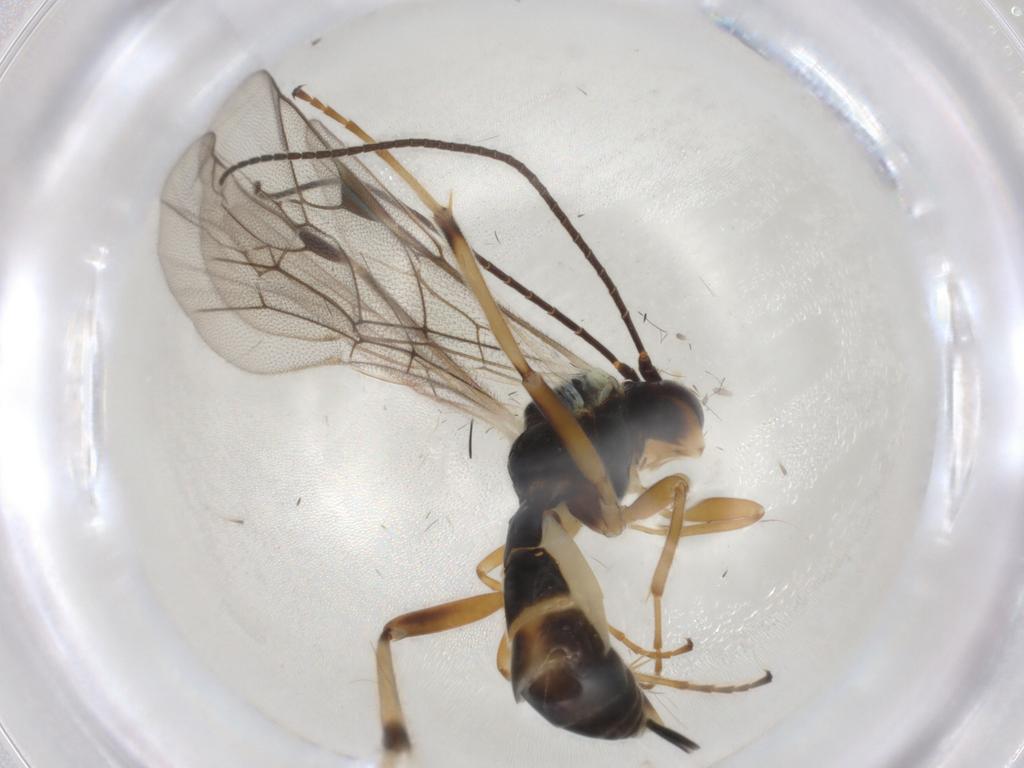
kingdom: Animalia
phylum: Arthropoda
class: Insecta
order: Hymenoptera
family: Ichneumonidae
